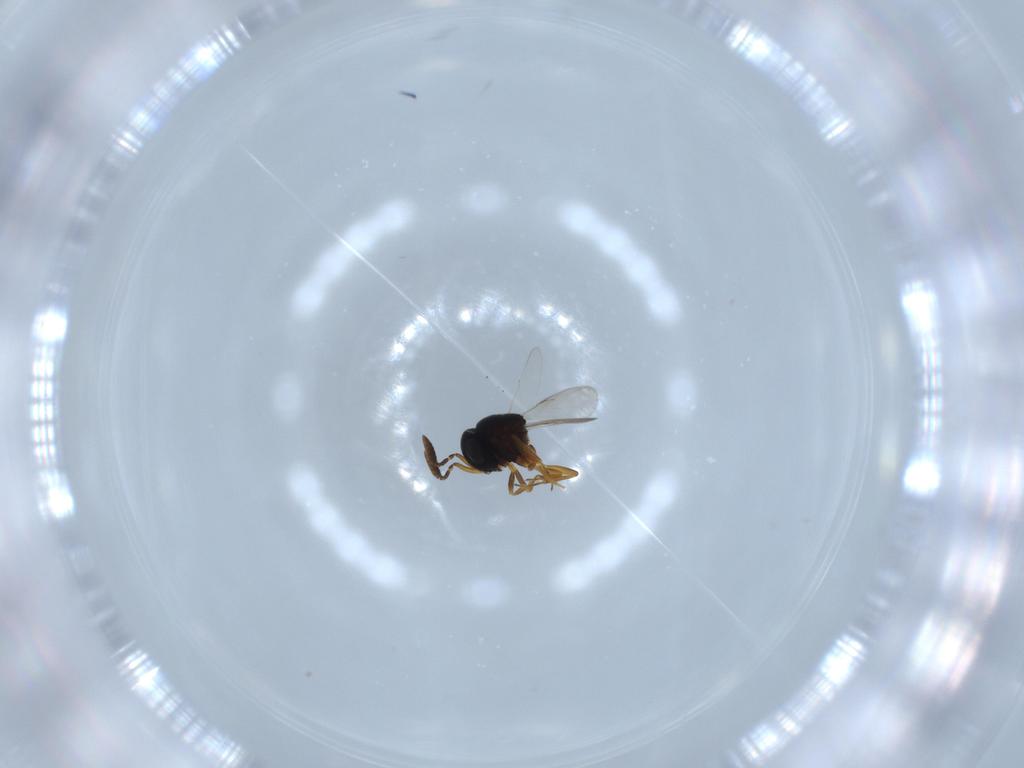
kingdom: Animalia
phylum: Arthropoda
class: Insecta
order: Hymenoptera
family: Scelionidae
